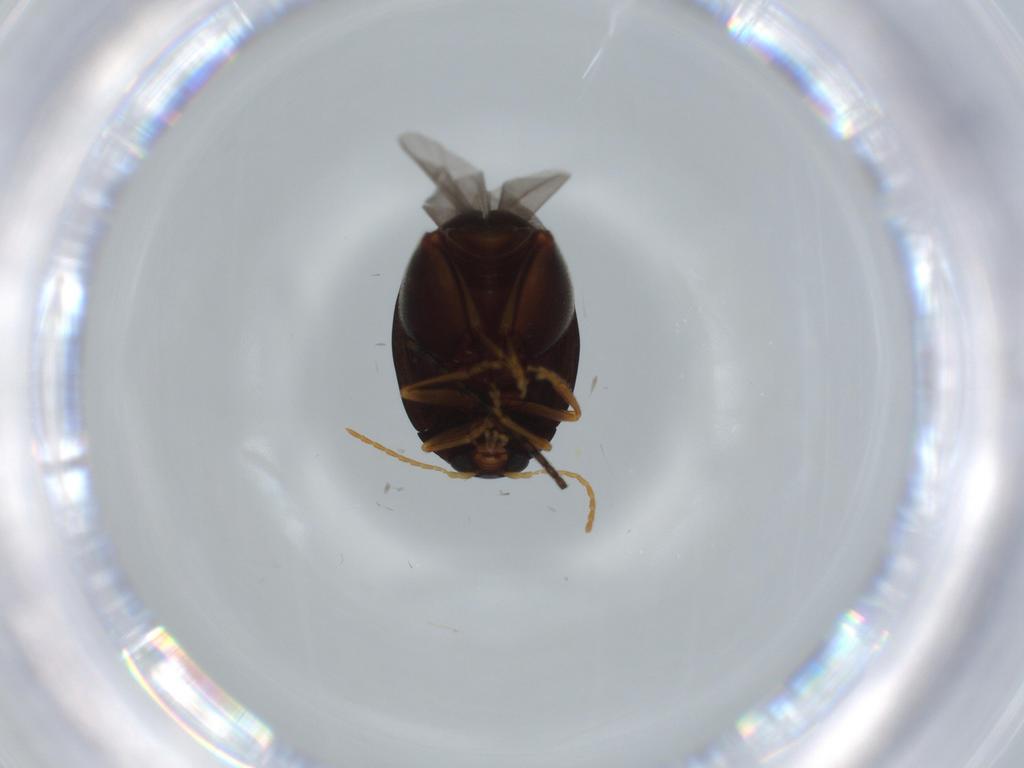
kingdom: Animalia
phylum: Arthropoda
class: Insecta
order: Coleoptera
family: Chrysomelidae
